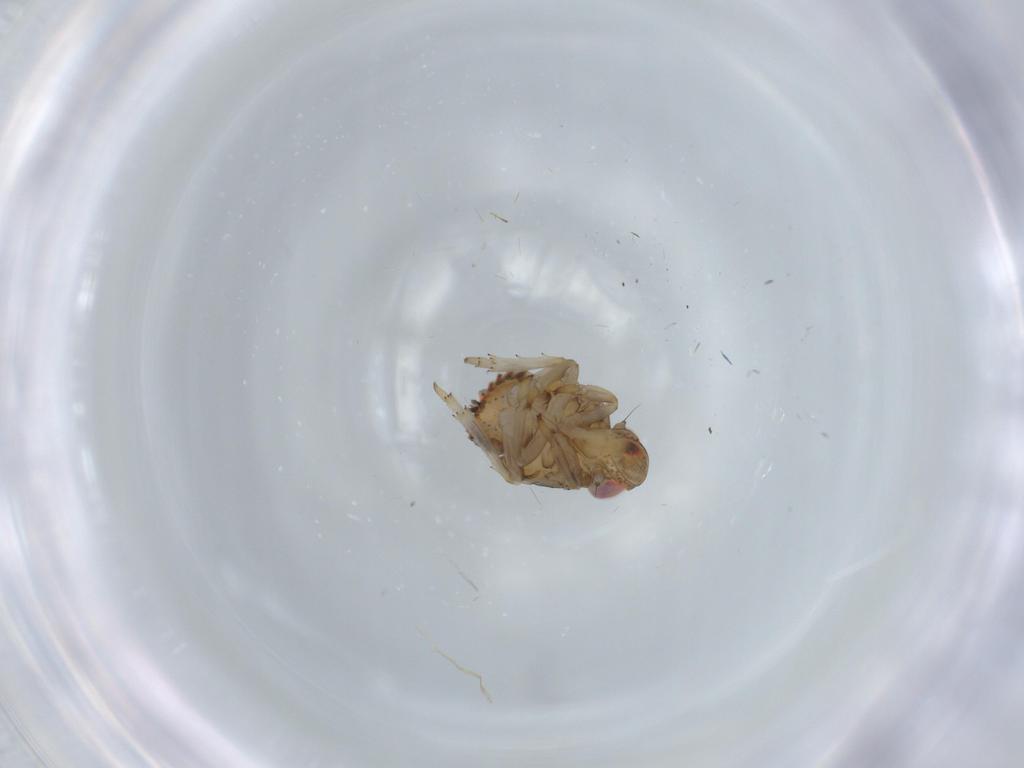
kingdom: Animalia
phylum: Arthropoda
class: Insecta
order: Hemiptera
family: Issidae
